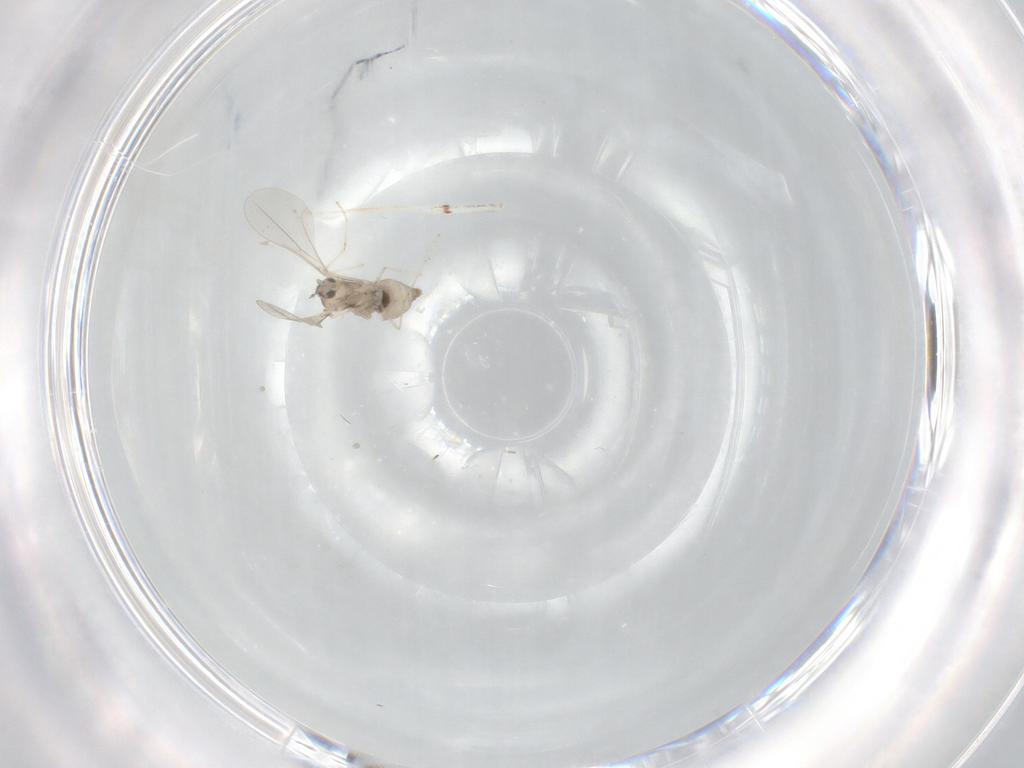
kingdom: Animalia
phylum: Arthropoda
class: Insecta
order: Diptera
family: Cecidomyiidae
